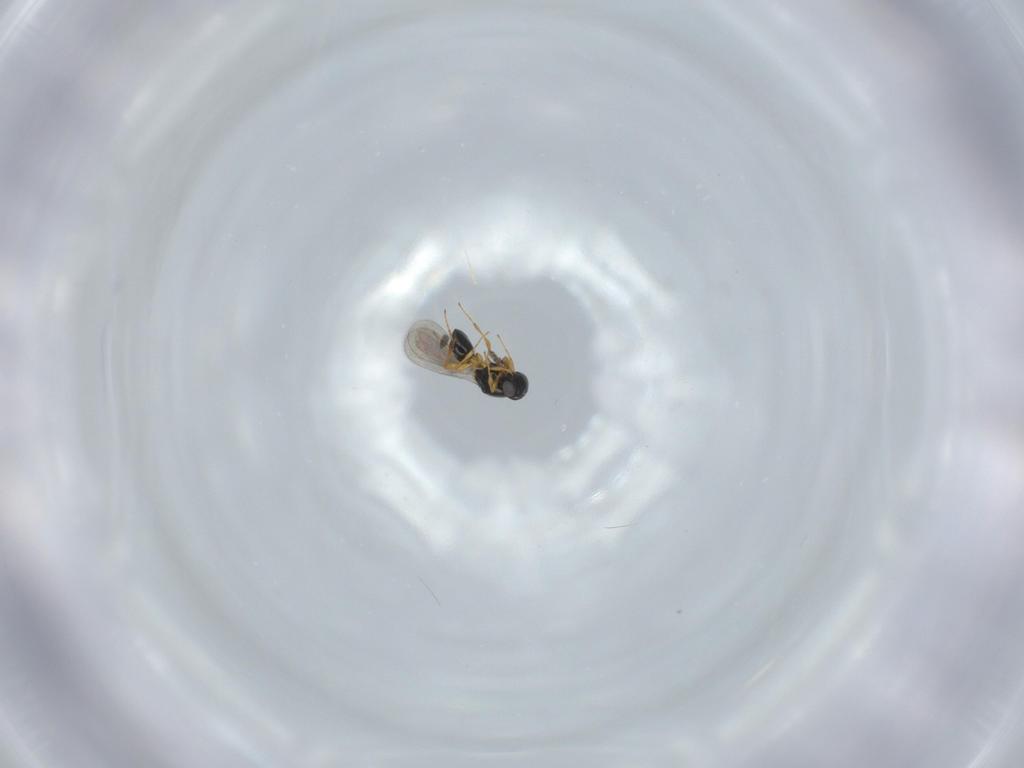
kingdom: Animalia
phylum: Arthropoda
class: Insecta
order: Hymenoptera
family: Platygastridae
